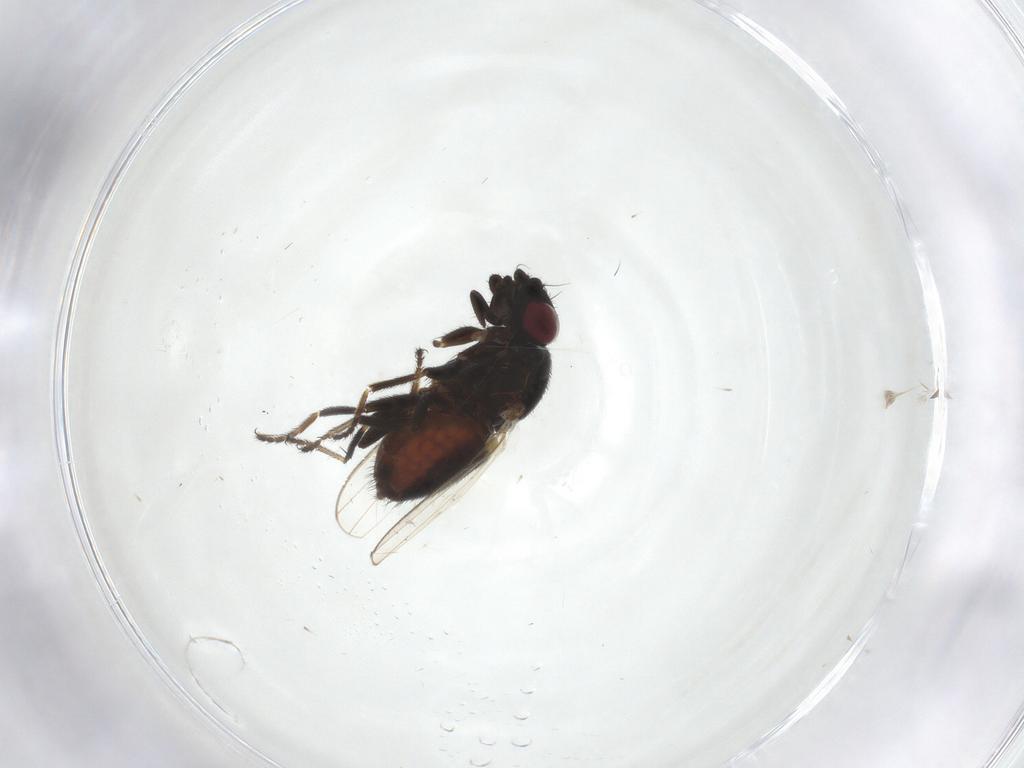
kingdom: Animalia
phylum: Arthropoda
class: Insecta
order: Diptera
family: Milichiidae
